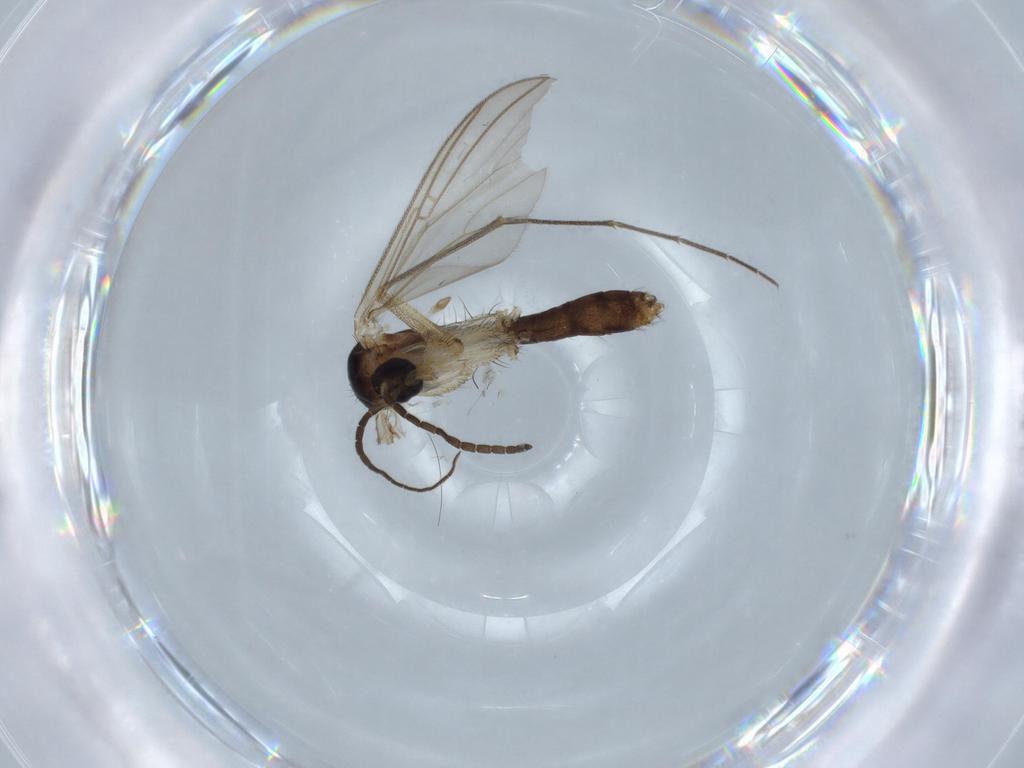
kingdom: Animalia
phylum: Arthropoda
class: Insecta
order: Diptera
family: Mycetophilidae
